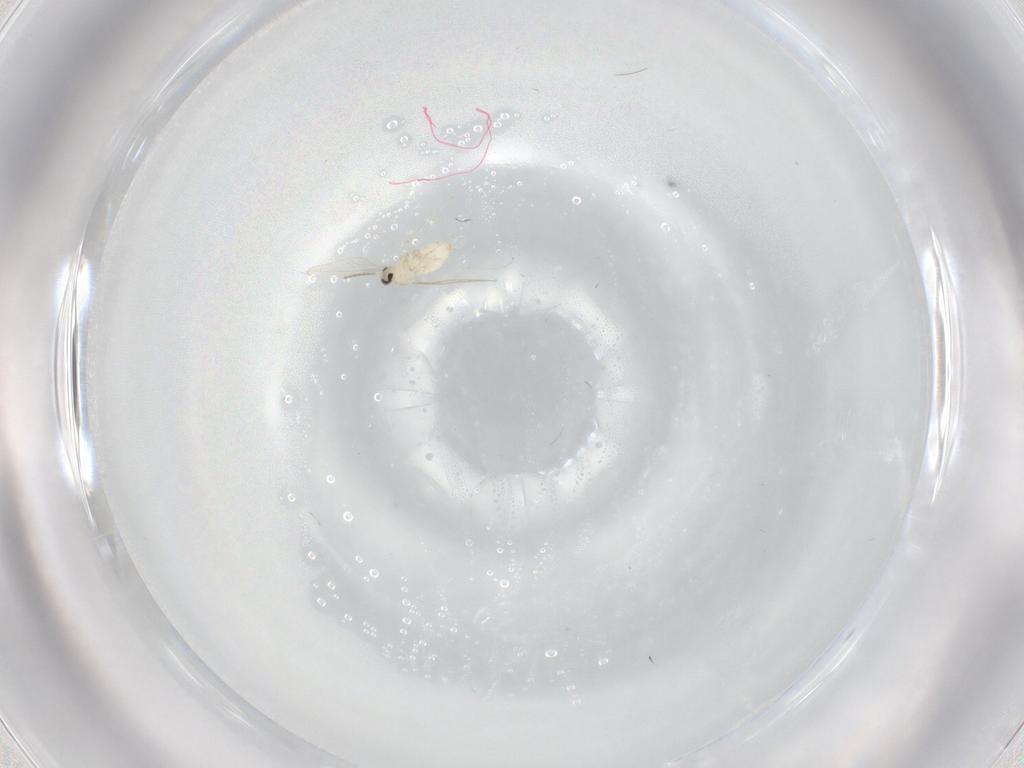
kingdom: Animalia
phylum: Arthropoda
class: Insecta
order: Diptera
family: Cecidomyiidae
